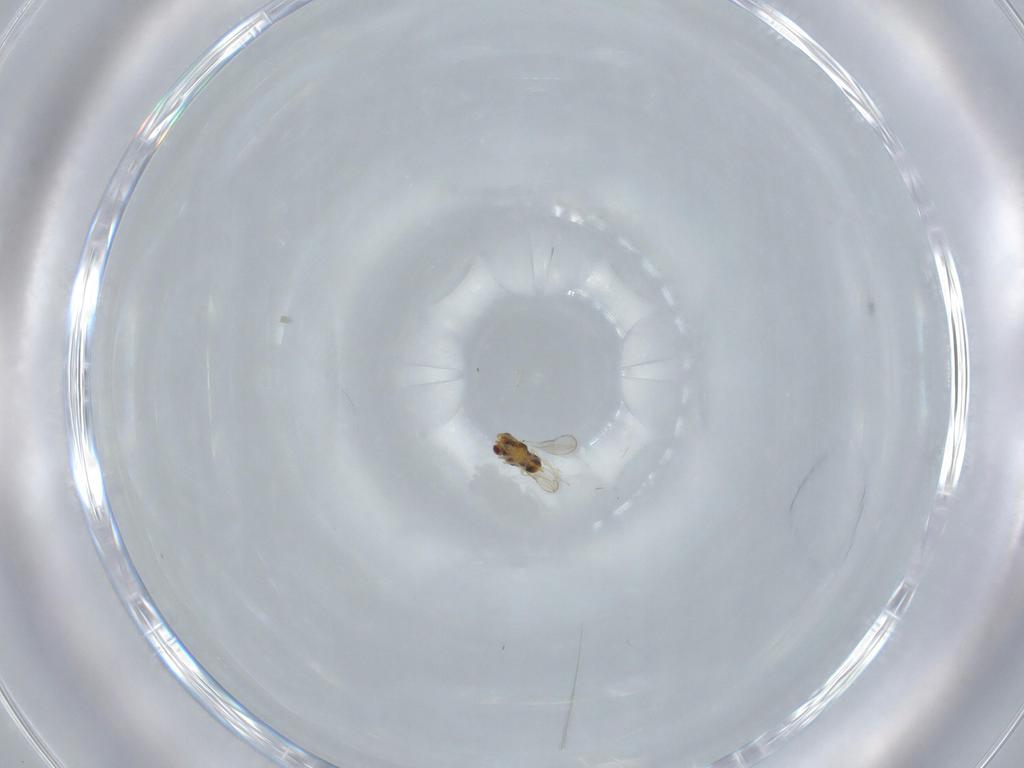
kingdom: Animalia
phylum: Arthropoda
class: Insecta
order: Hymenoptera
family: Aphelinidae
